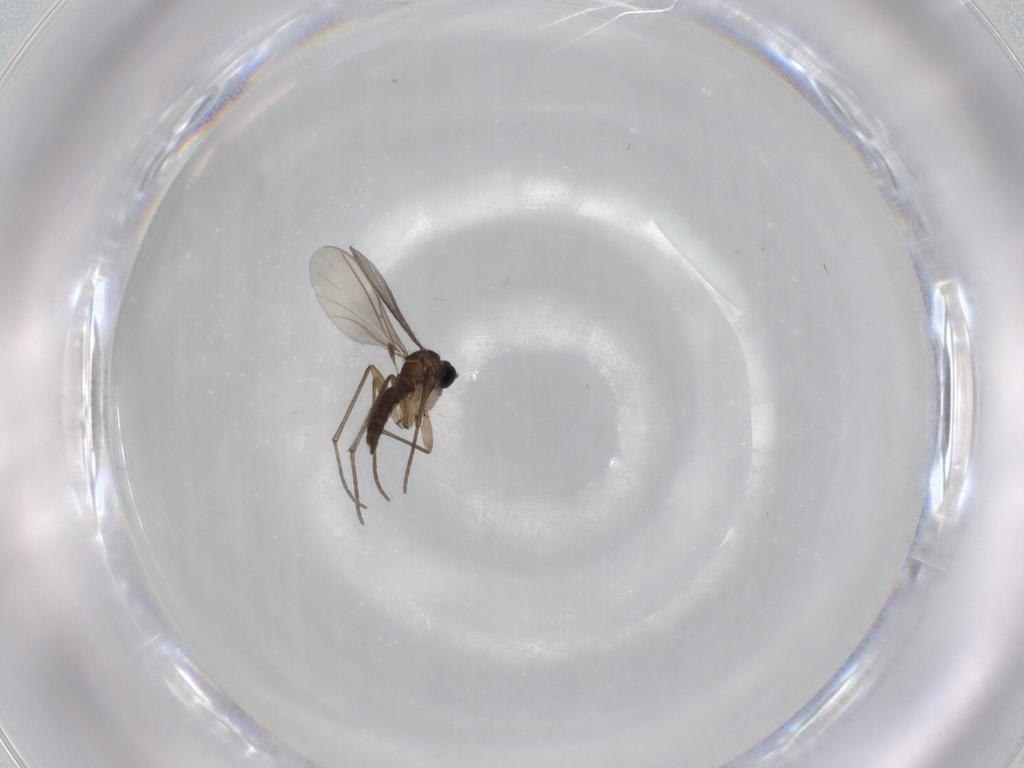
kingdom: Animalia
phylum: Arthropoda
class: Insecta
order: Diptera
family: Sciaridae
